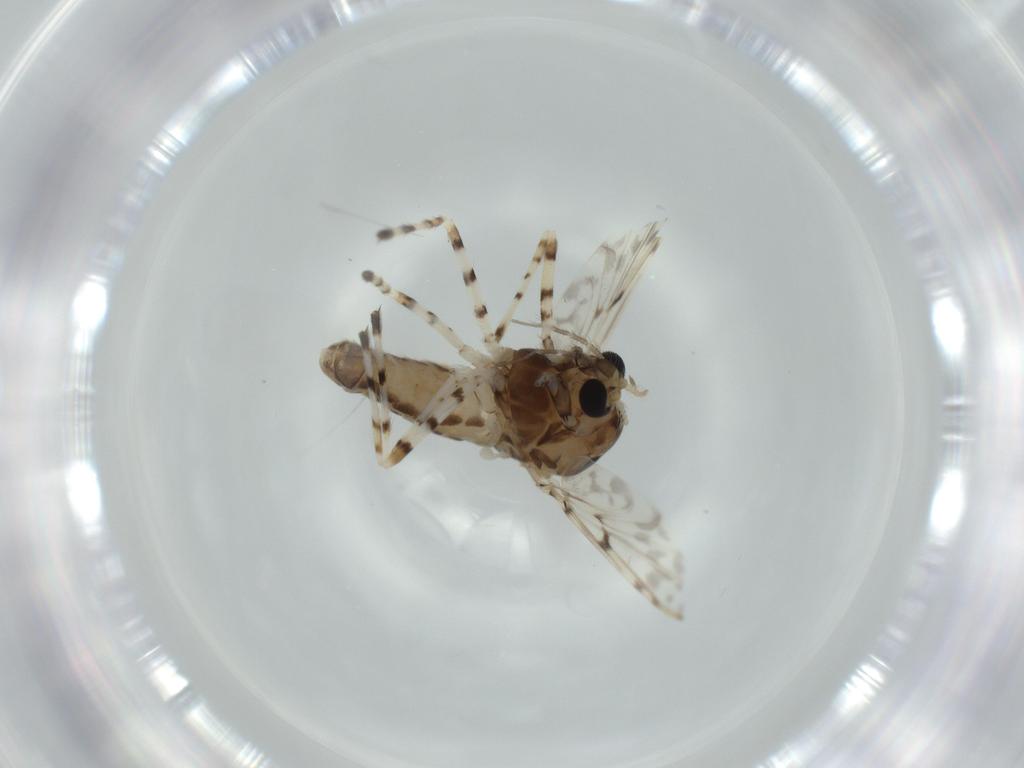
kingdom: Animalia
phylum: Arthropoda
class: Insecta
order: Diptera
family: Chironomidae
